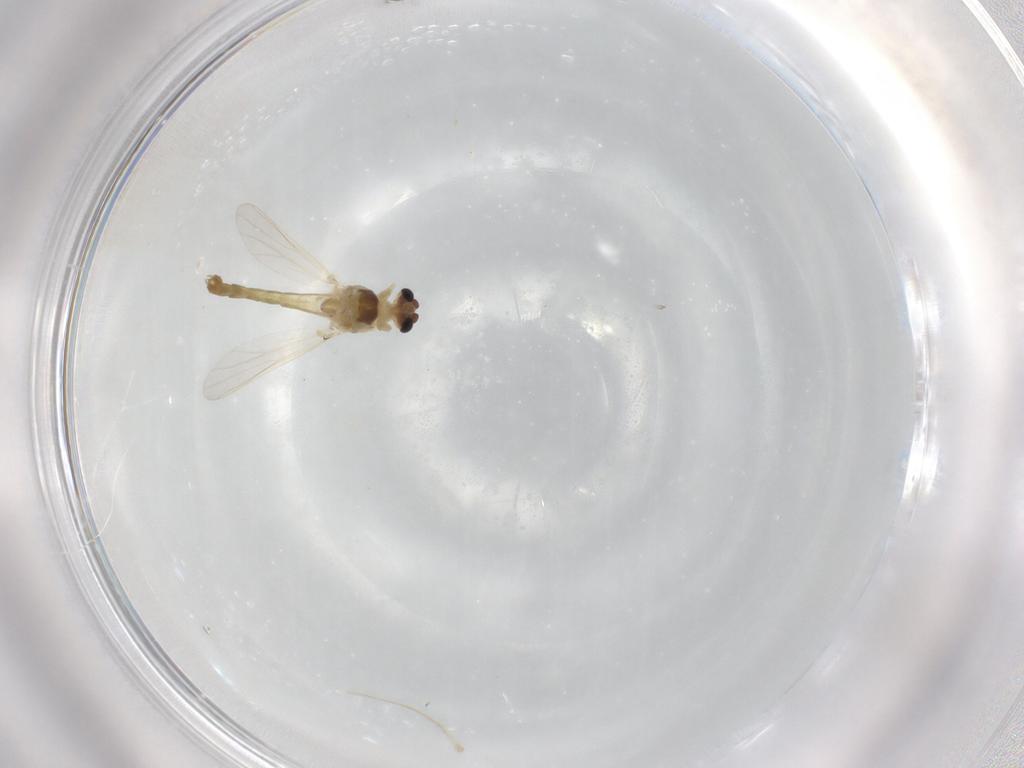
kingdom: Animalia
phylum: Arthropoda
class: Insecta
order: Diptera
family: Chironomidae
